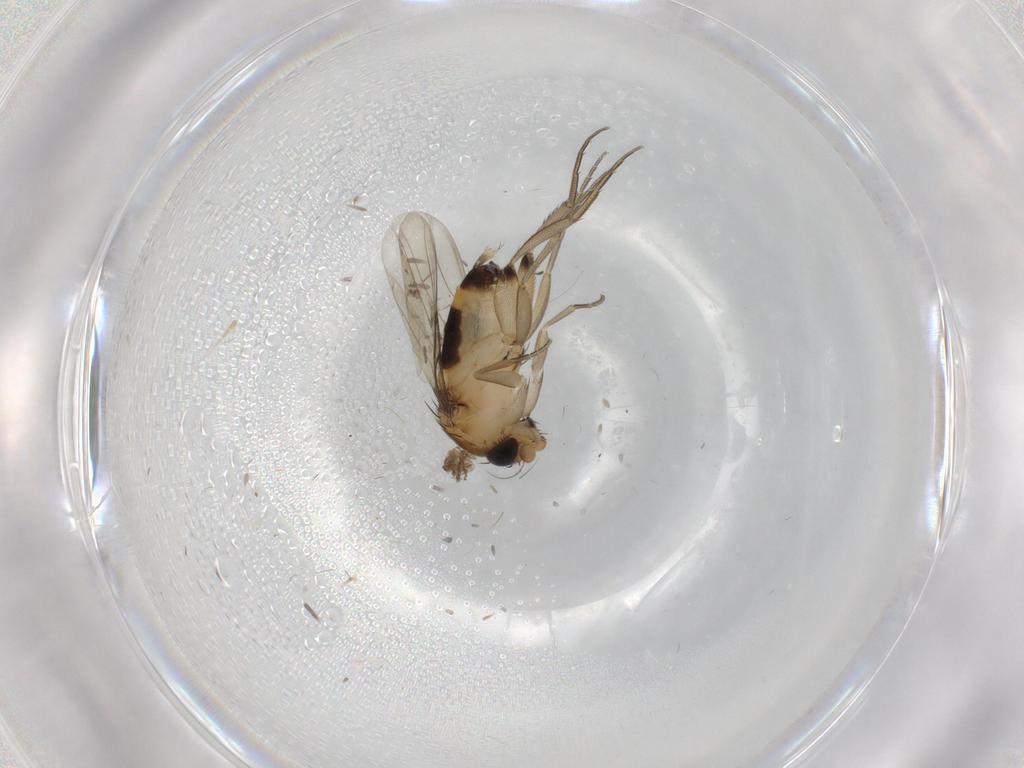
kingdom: Animalia
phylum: Arthropoda
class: Insecta
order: Diptera
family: Phoridae
